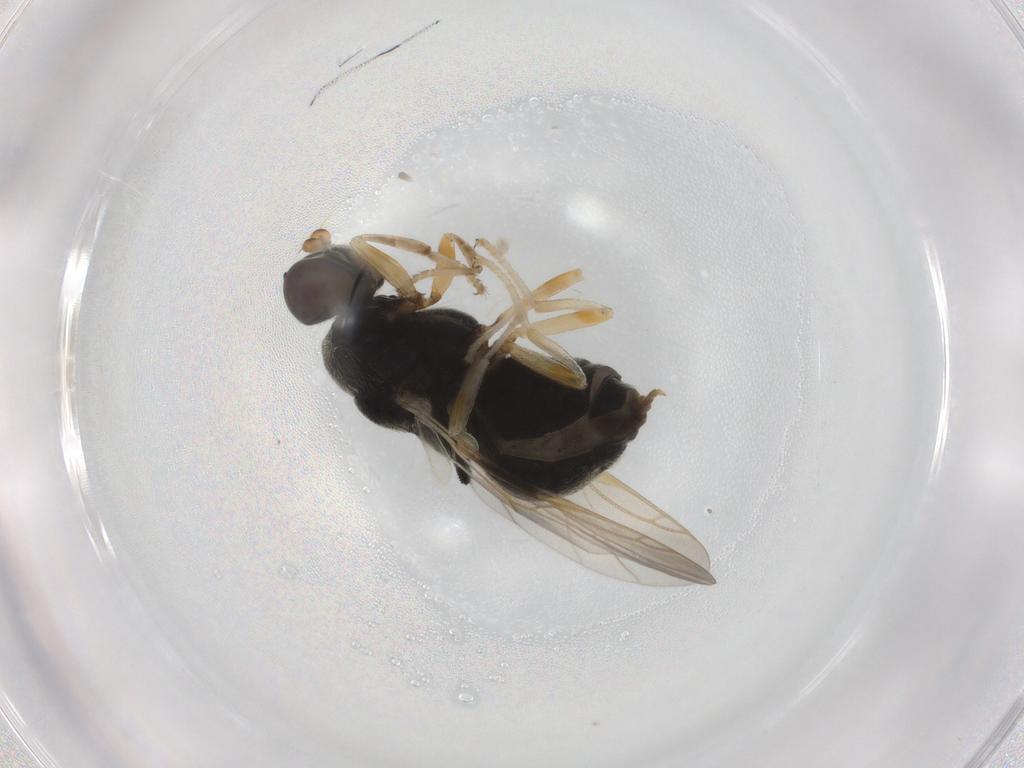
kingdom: Animalia
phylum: Arthropoda
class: Insecta
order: Diptera
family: Stratiomyidae
